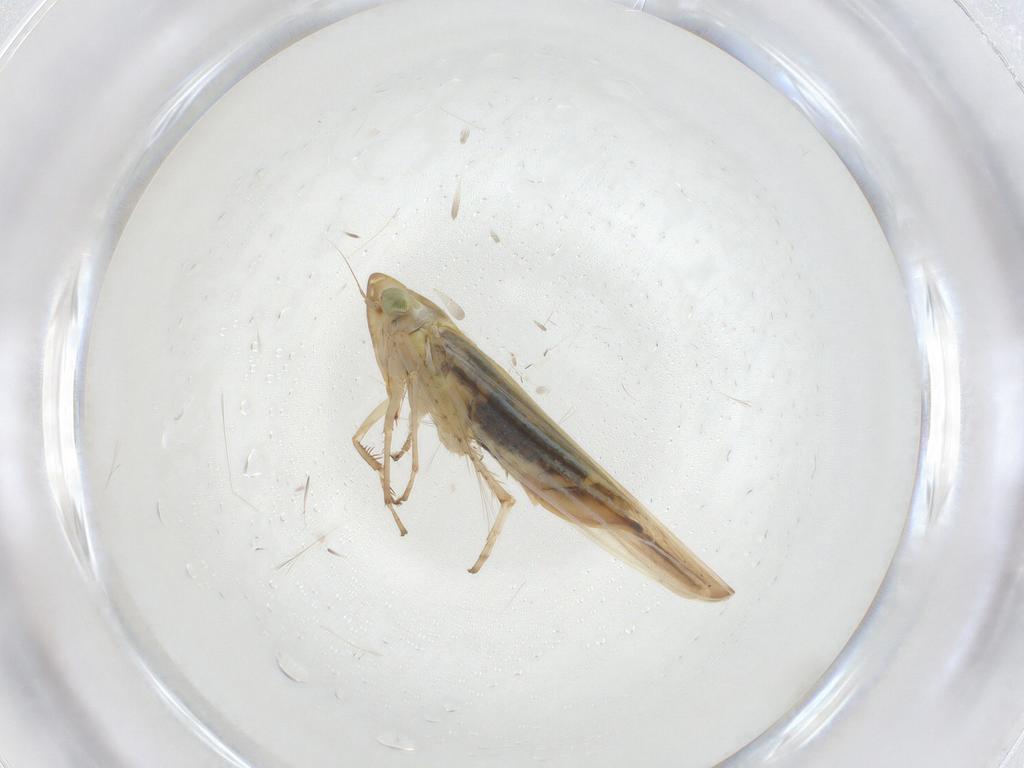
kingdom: Animalia
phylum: Arthropoda
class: Insecta
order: Hemiptera
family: Cicadellidae
